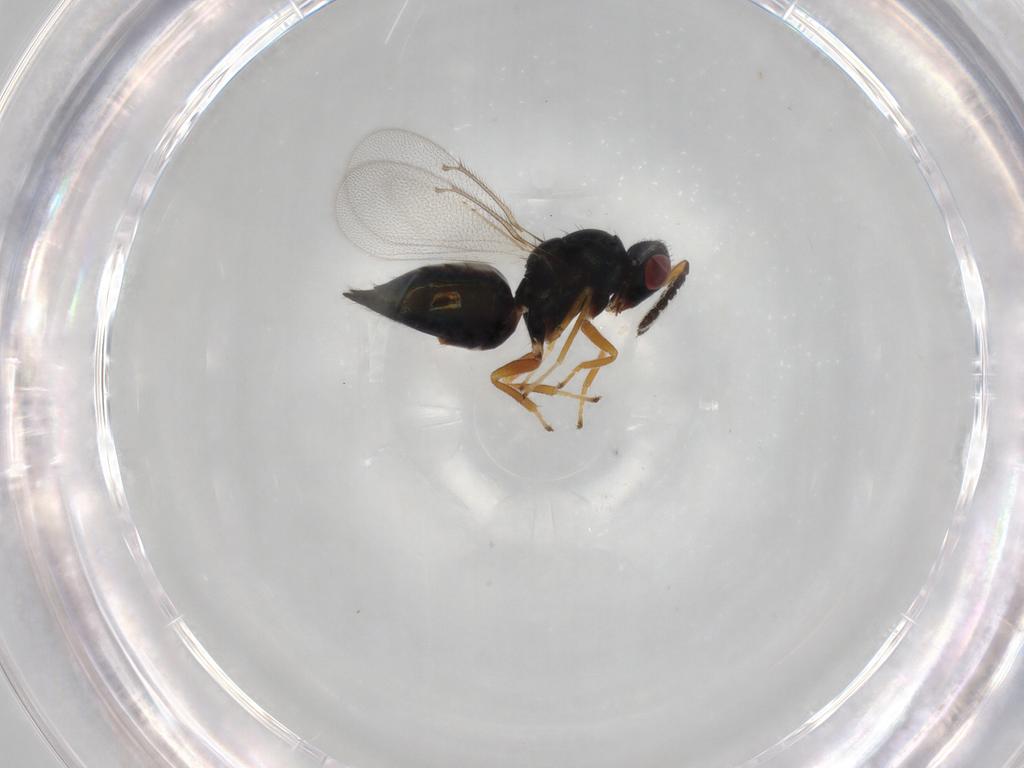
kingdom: Animalia
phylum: Arthropoda
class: Insecta
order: Hymenoptera
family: Eulophidae
